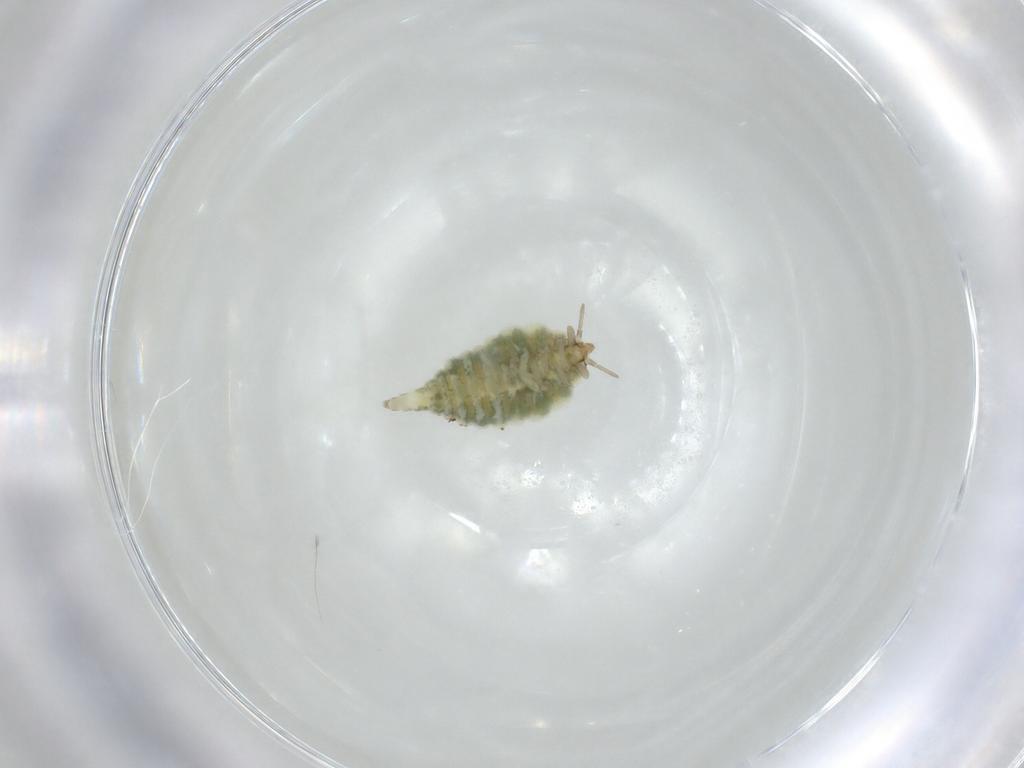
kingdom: Animalia
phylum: Arthropoda
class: Insecta
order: Neuroptera
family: Coniopterygidae
